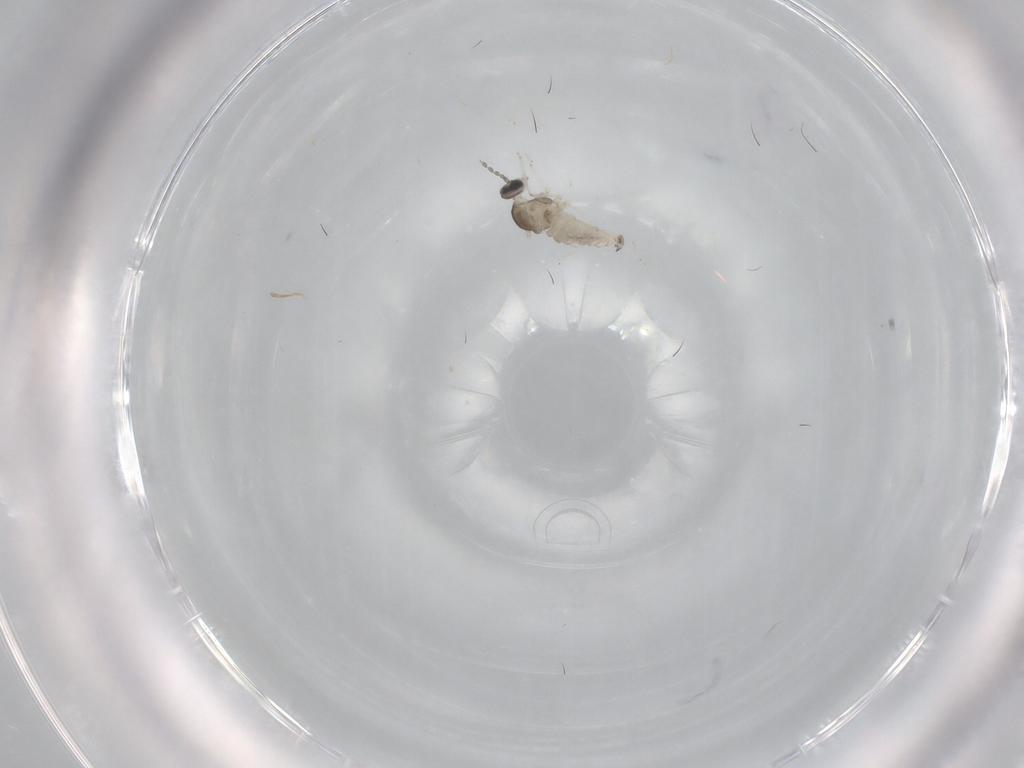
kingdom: Animalia
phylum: Arthropoda
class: Insecta
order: Diptera
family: Cecidomyiidae
